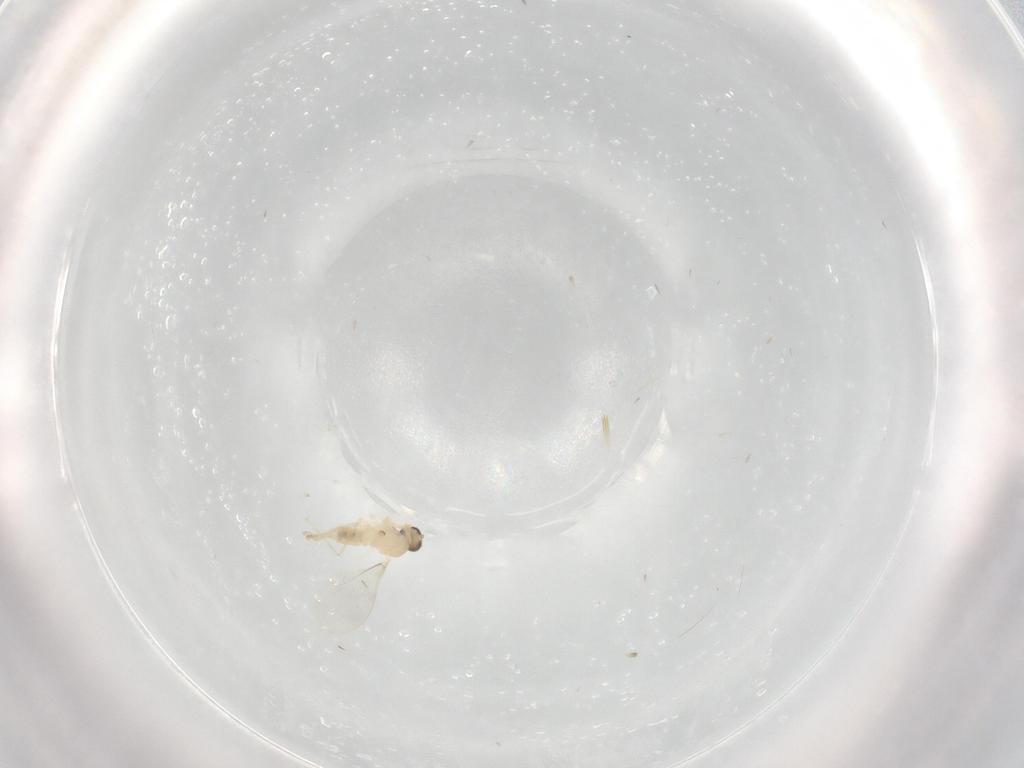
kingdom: Animalia
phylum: Arthropoda
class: Insecta
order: Diptera
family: Cecidomyiidae
